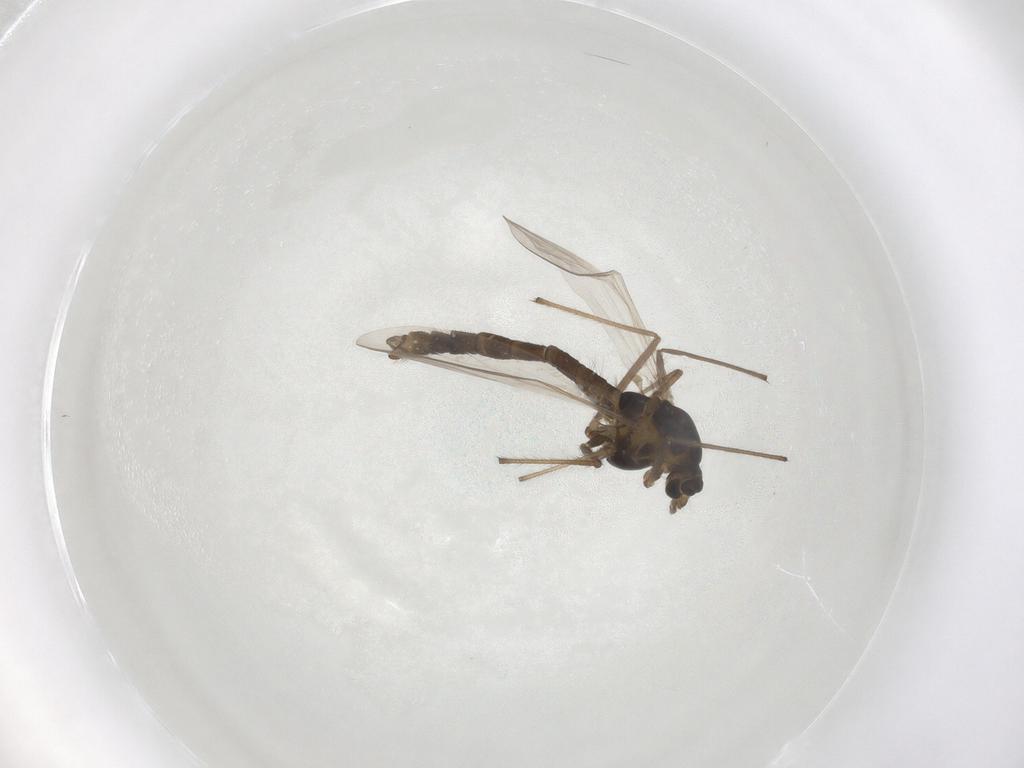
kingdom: Animalia
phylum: Arthropoda
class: Insecta
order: Diptera
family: Chironomidae
